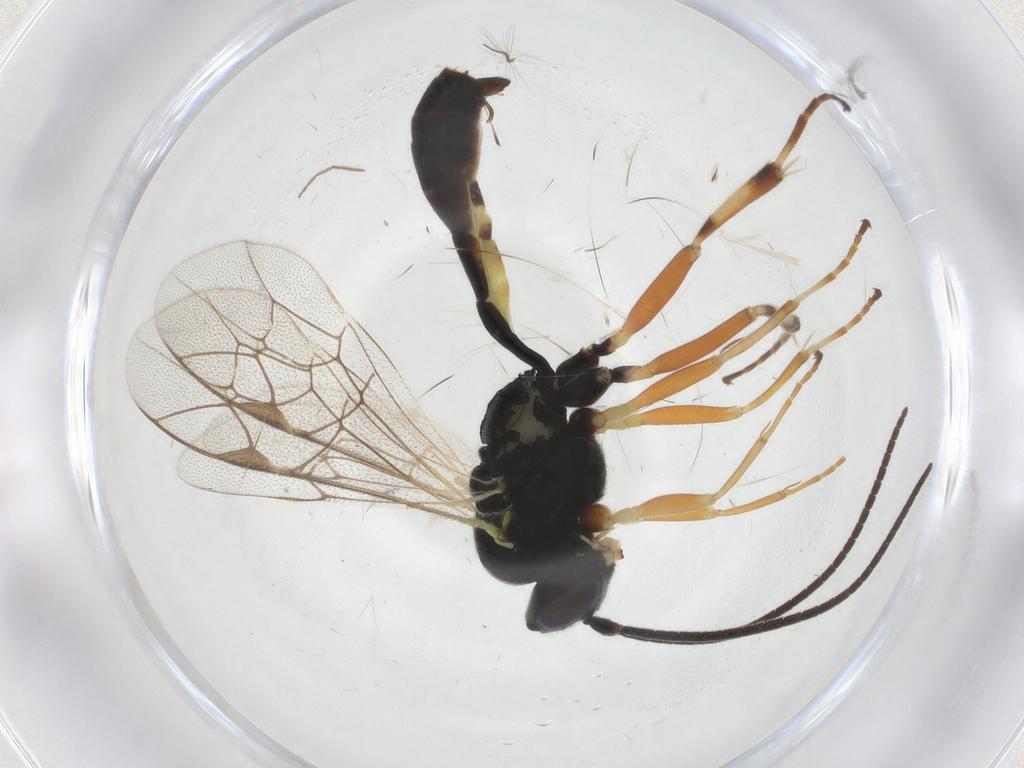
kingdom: Animalia
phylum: Arthropoda
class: Insecta
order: Hymenoptera
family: Ichneumonidae
